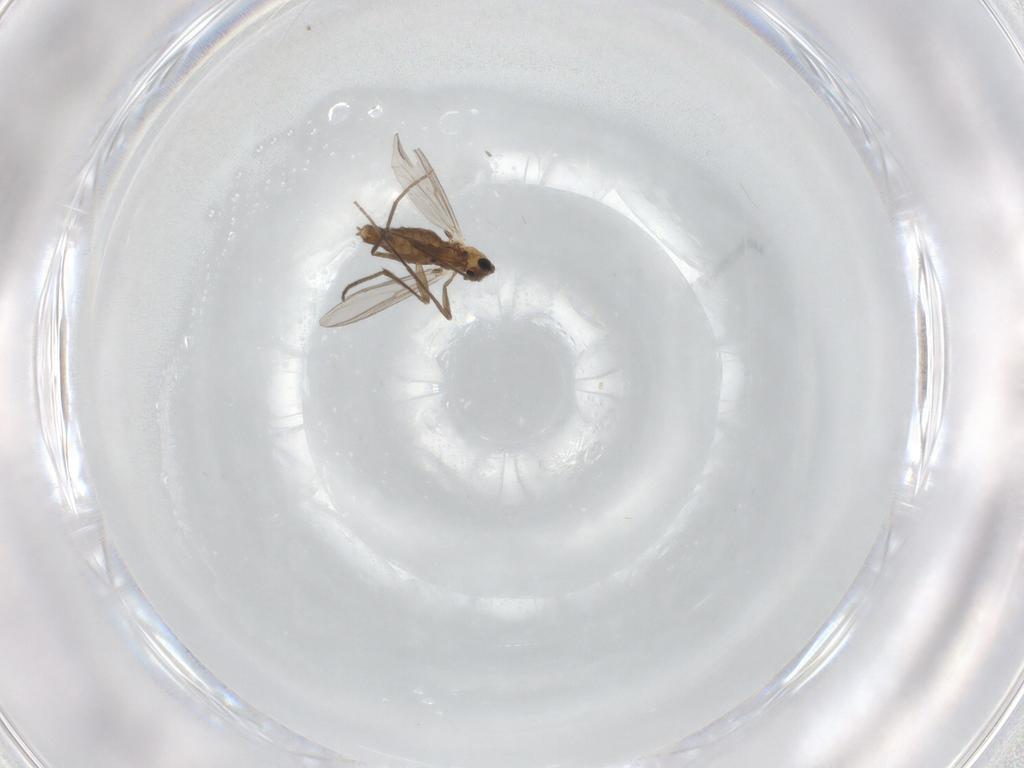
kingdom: Animalia
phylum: Arthropoda
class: Insecta
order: Diptera
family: Chironomidae
